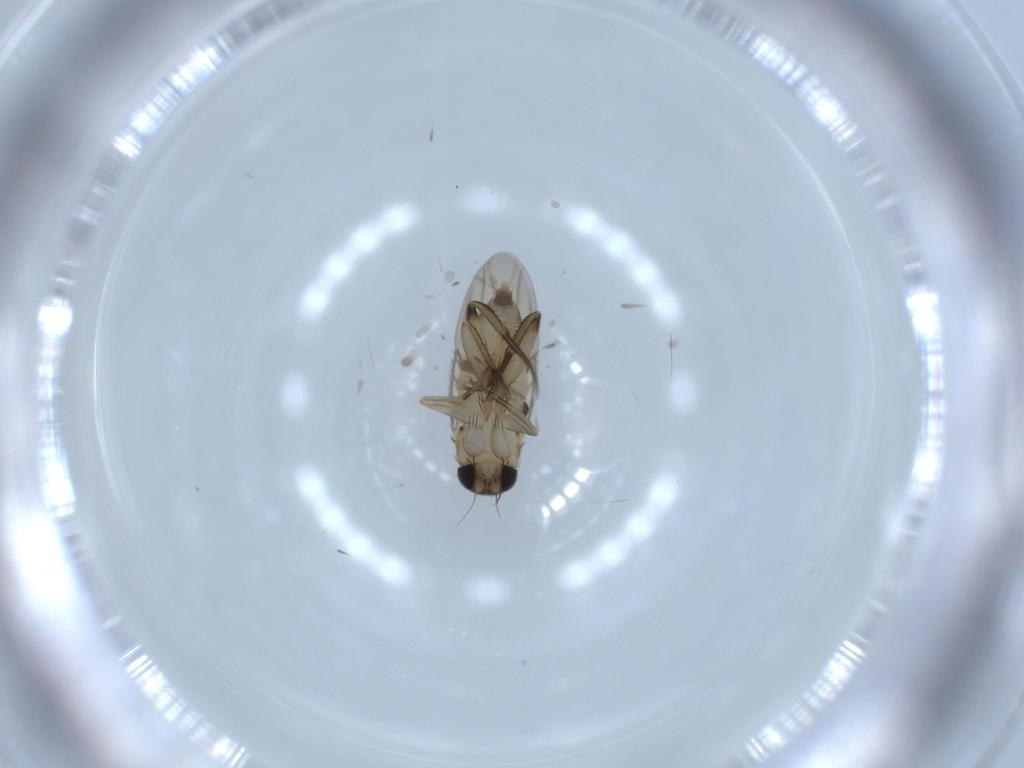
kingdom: Animalia
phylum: Arthropoda
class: Insecta
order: Diptera
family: Phoridae
